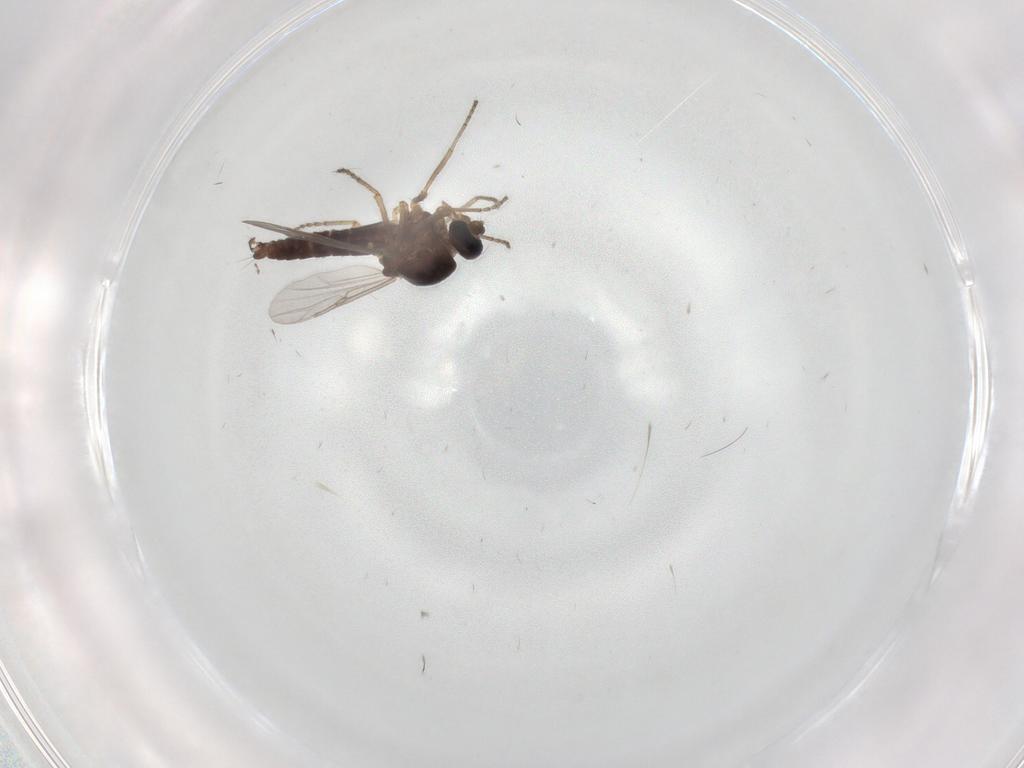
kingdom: Animalia
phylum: Arthropoda
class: Insecta
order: Diptera
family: Ceratopogonidae
